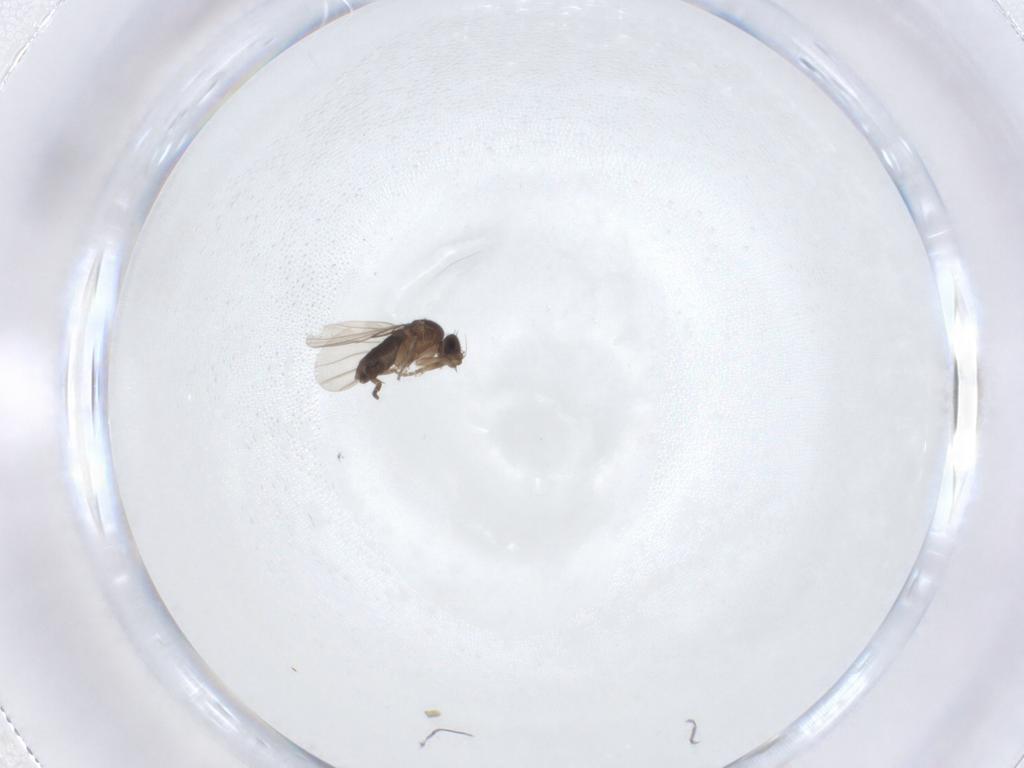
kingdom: Animalia
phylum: Arthropoda
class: Insecta
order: Diptera
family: Phoridae
